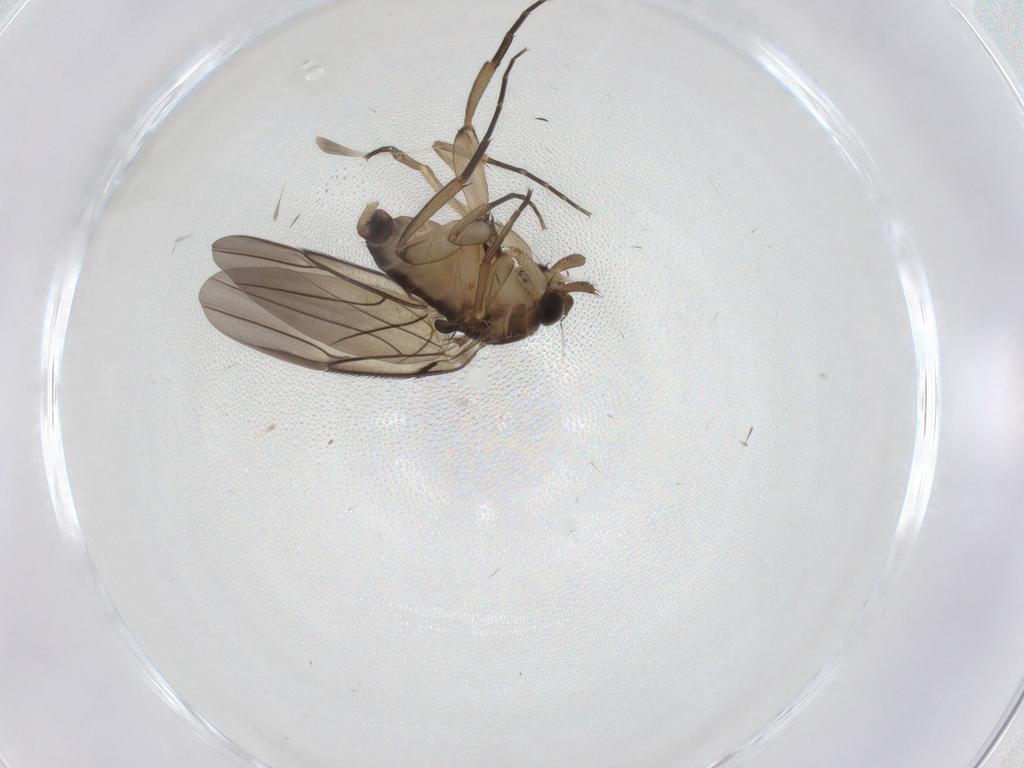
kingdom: Animalia
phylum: Arthropoda
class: Insecta
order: Diptera
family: Phoridae
